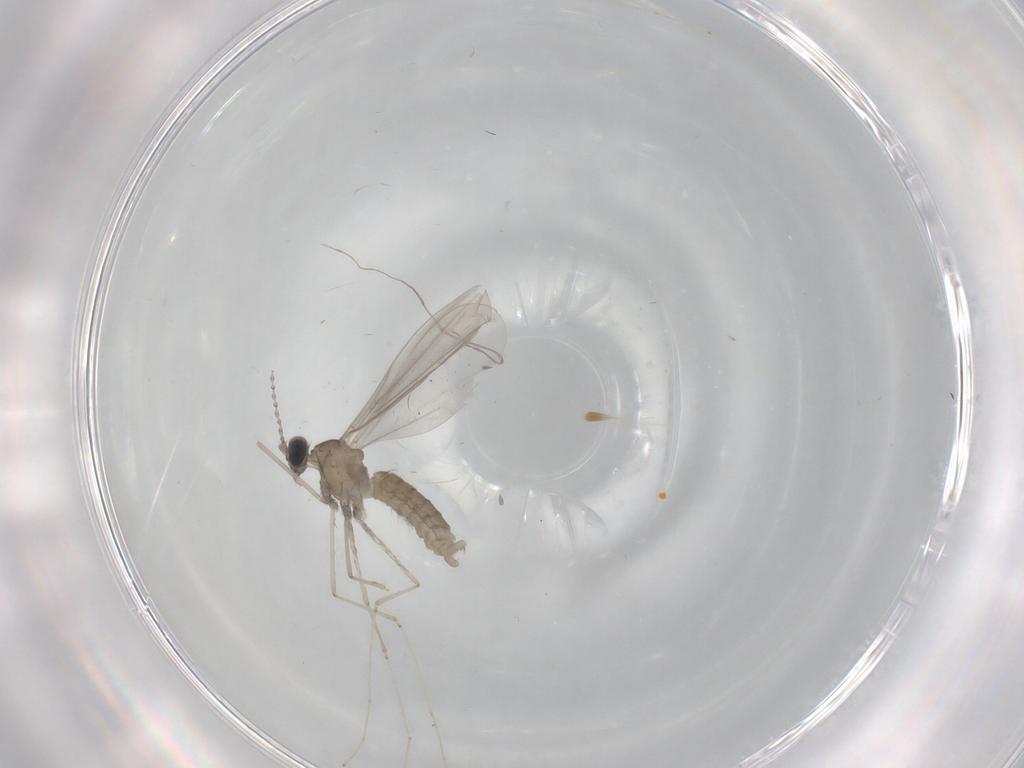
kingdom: Animalia
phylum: Arthropoda
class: Insecta
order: Diptera
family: Cecidomyiidae
